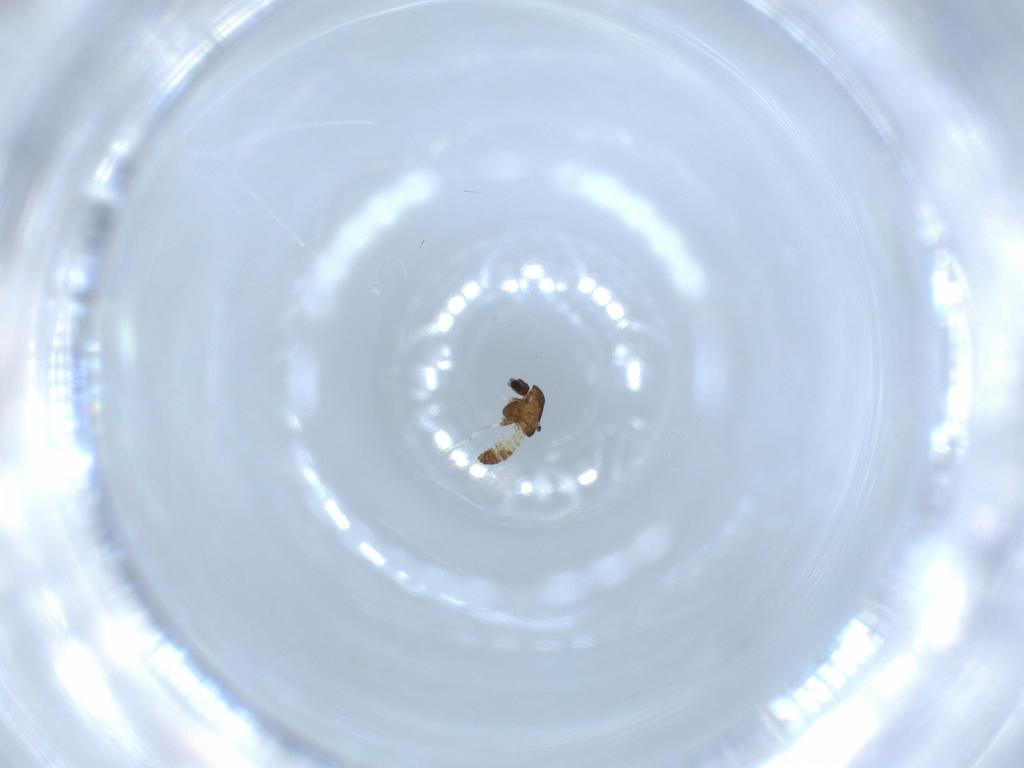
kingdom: Animalia
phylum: Arthropoda
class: Insecta
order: Diptera
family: Chironomidae
